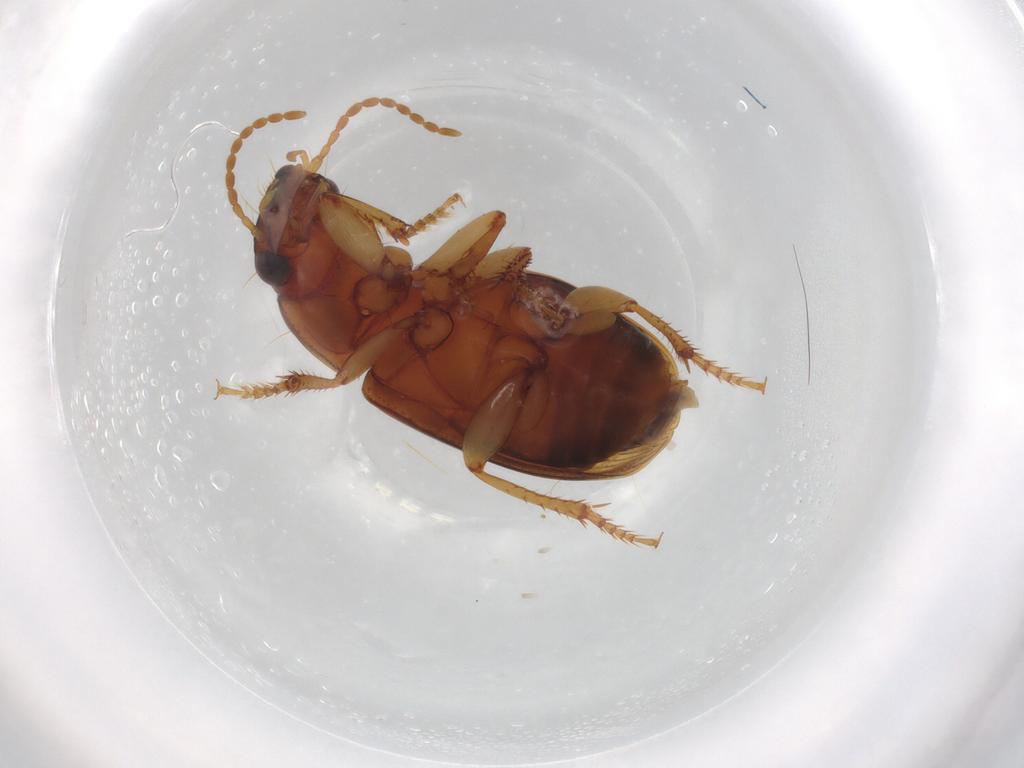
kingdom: Animalia
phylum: Arthropoda
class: Insecta
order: Coleoptera
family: Carabidae
